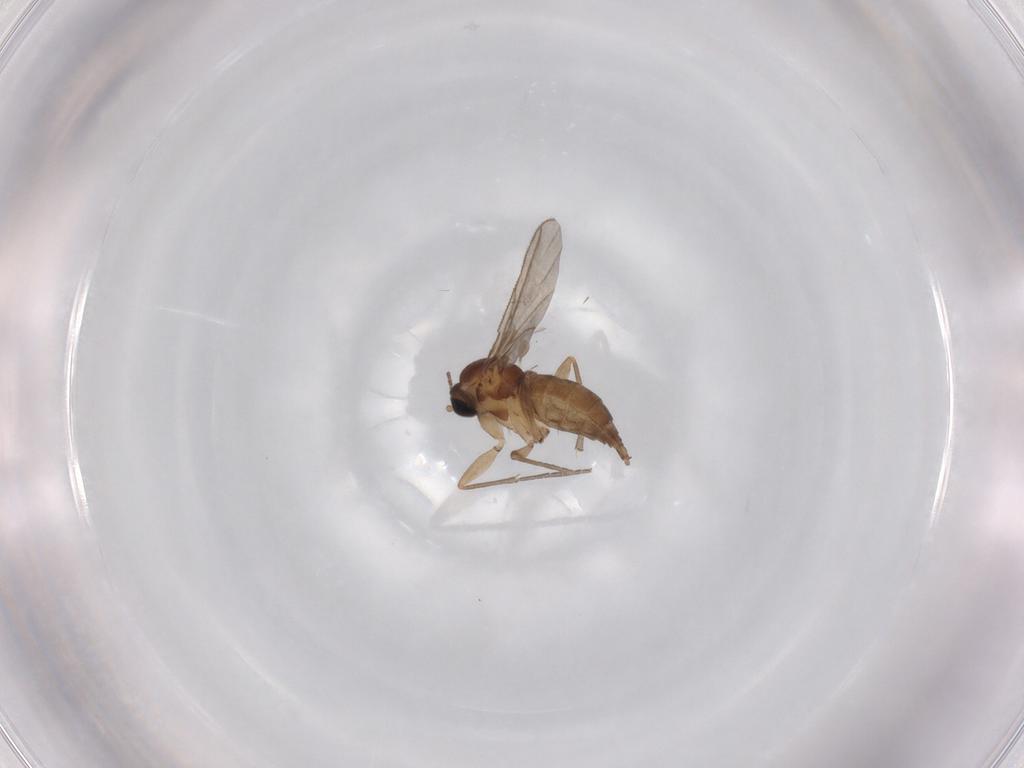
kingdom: Animalia
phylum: Arthropoda
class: Insecta
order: Diptera
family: Sciaridae
